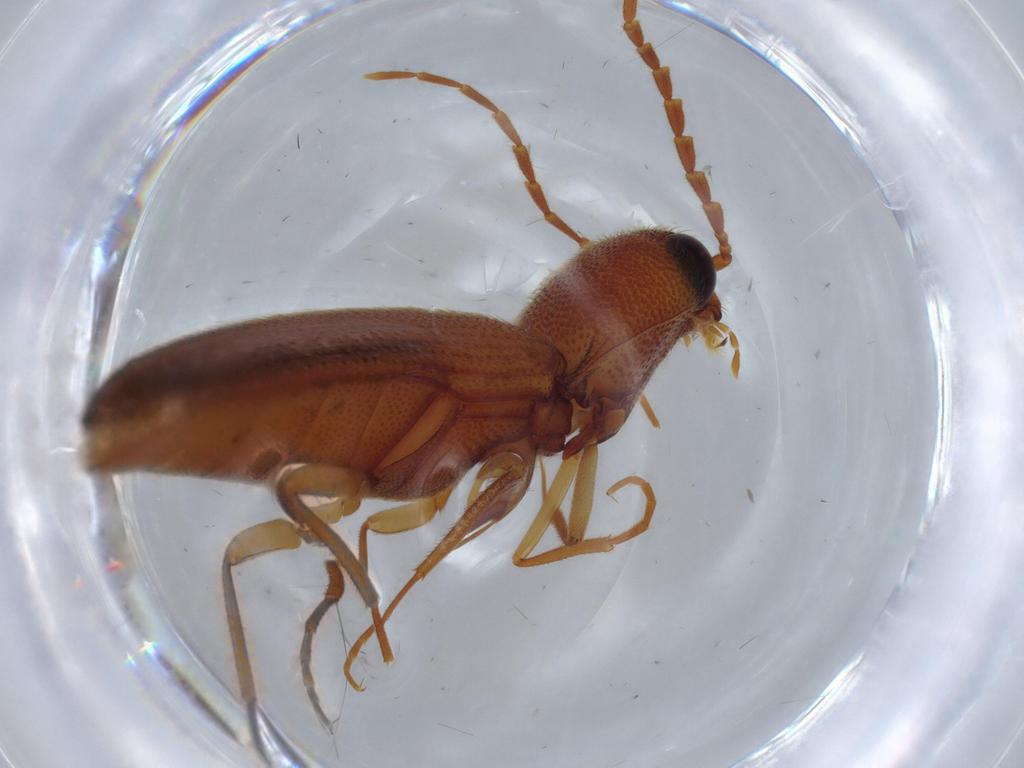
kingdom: Animalia
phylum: Arthropoda
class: Insecta
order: Coleoptera
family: Elateridae
